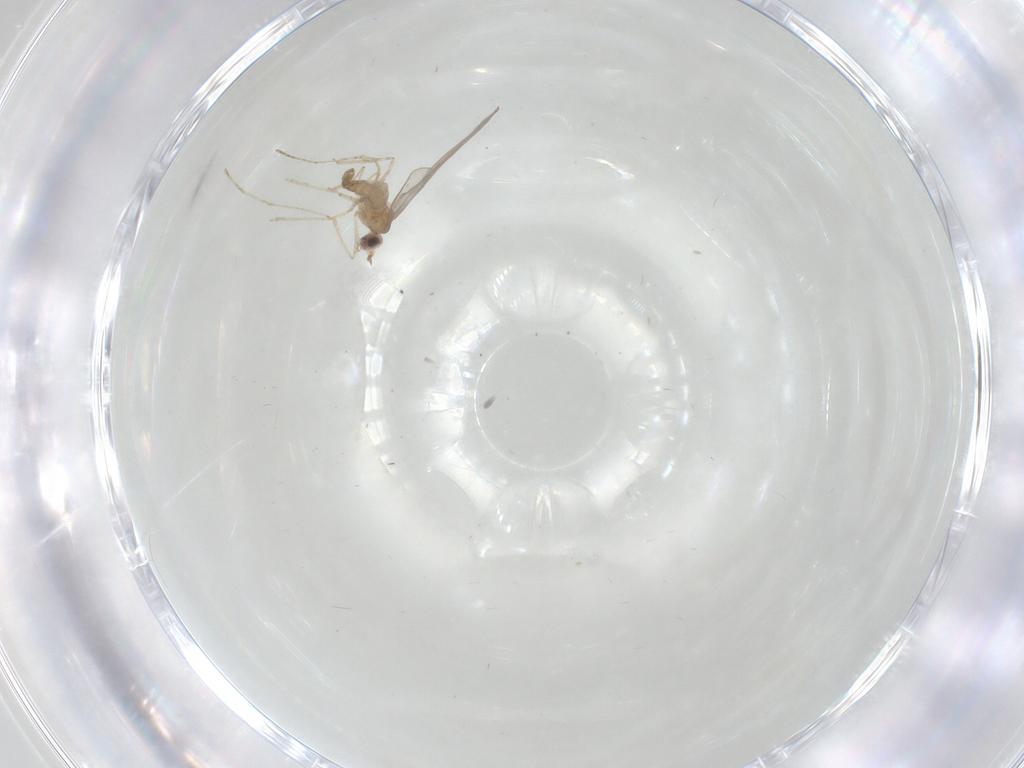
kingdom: Animalia
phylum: Arthropoda
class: Insecta
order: Diptera
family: Cecidomyiidae
